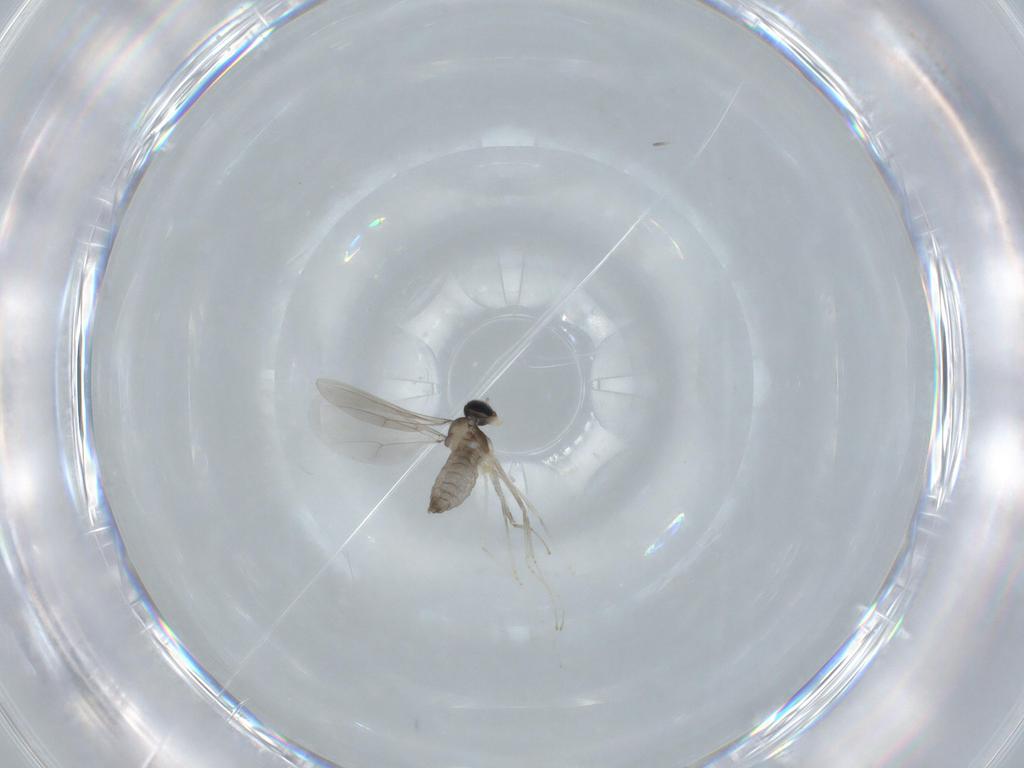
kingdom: Animalia
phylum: Arthropoda
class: Insecta
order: Diptera
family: Cecidomyiidae
